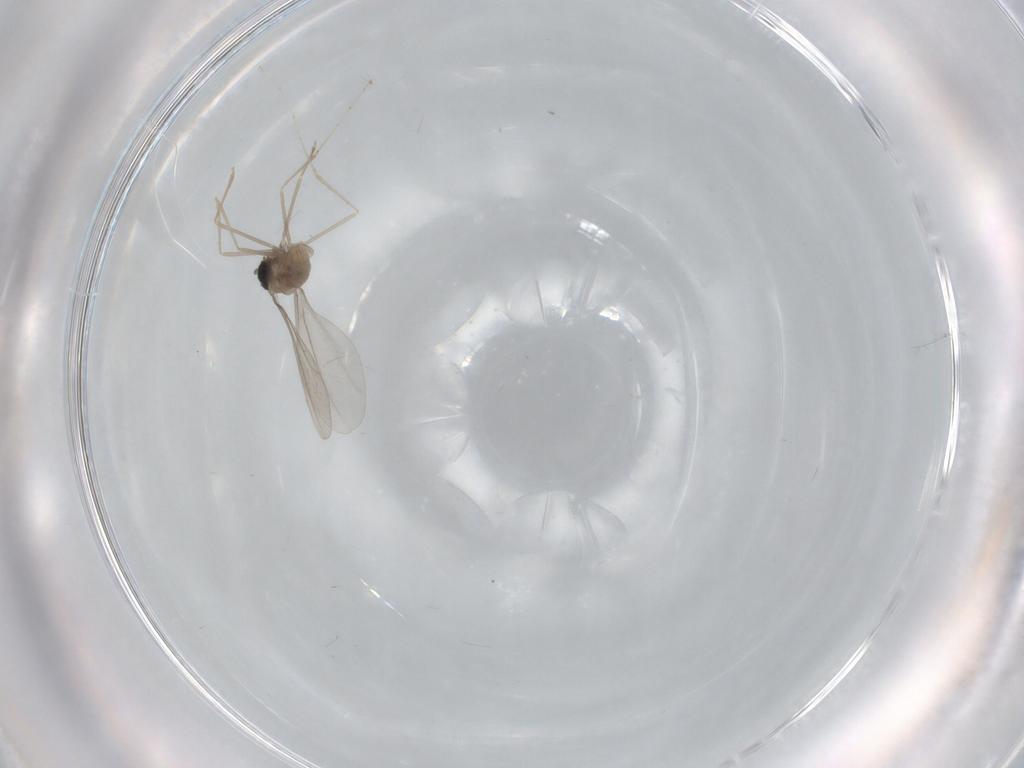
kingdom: Animalia
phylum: Arthropoda
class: Insecta
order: Diptera
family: Cecidomyiidae
